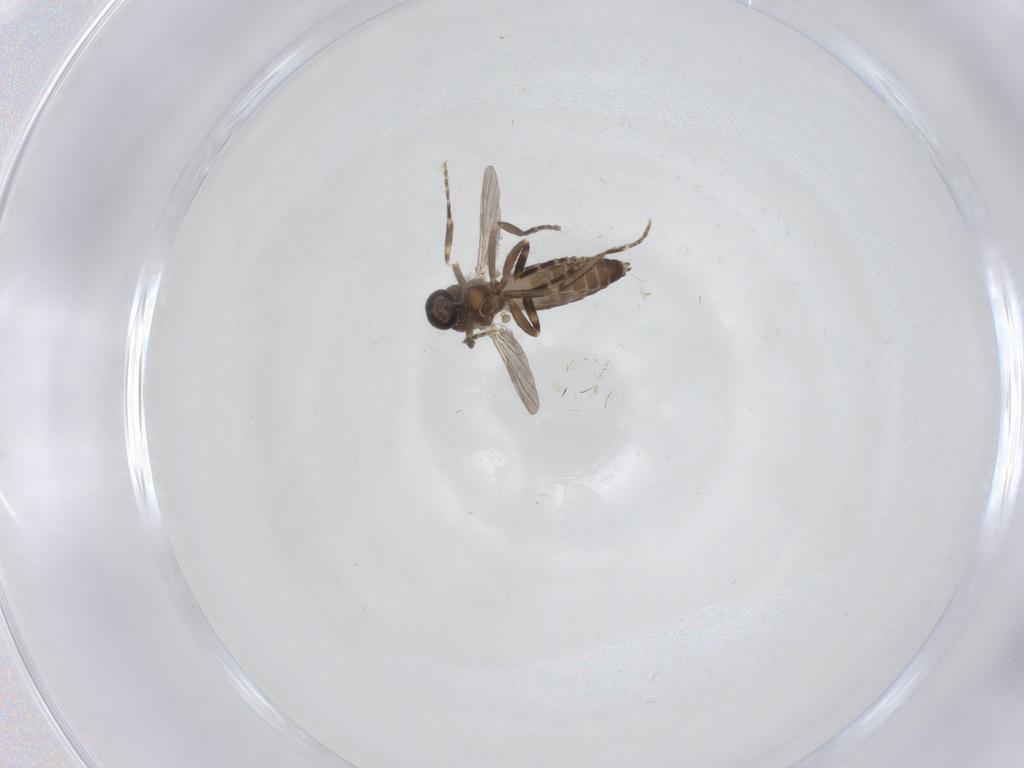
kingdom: Animalia
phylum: Arthropoda
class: Insecta
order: Diptera
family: Ceratopogonidae
